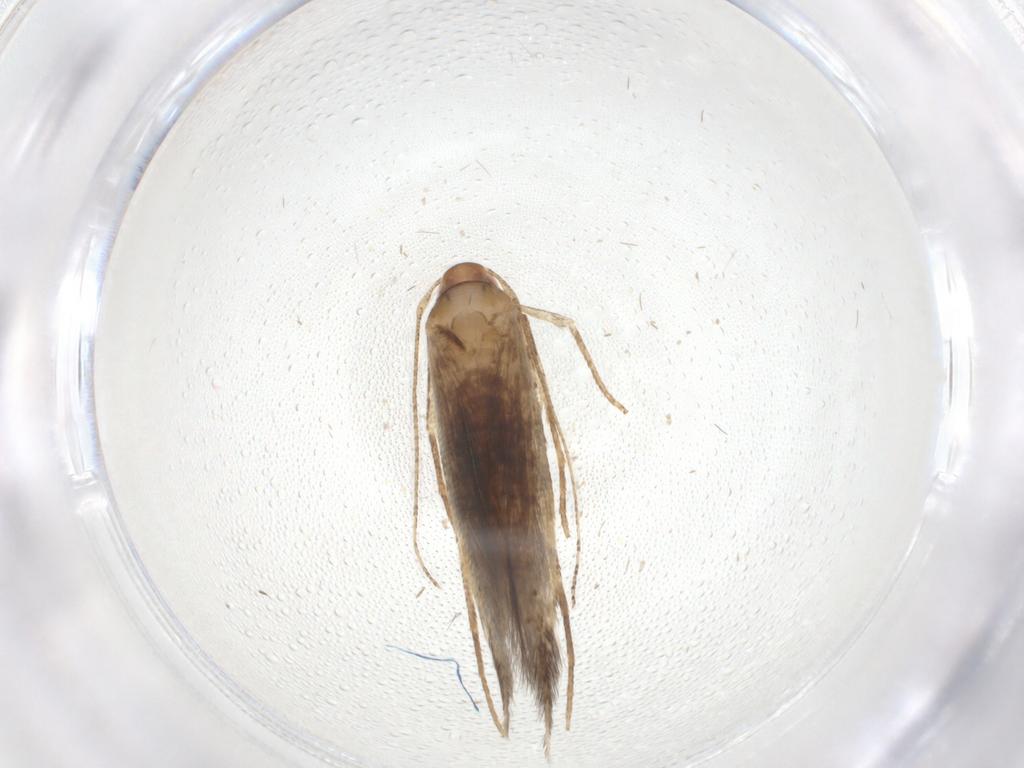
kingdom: Animalia
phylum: Arthropoda
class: Insecta
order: Lepidoptera
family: Cosmopterigidae
